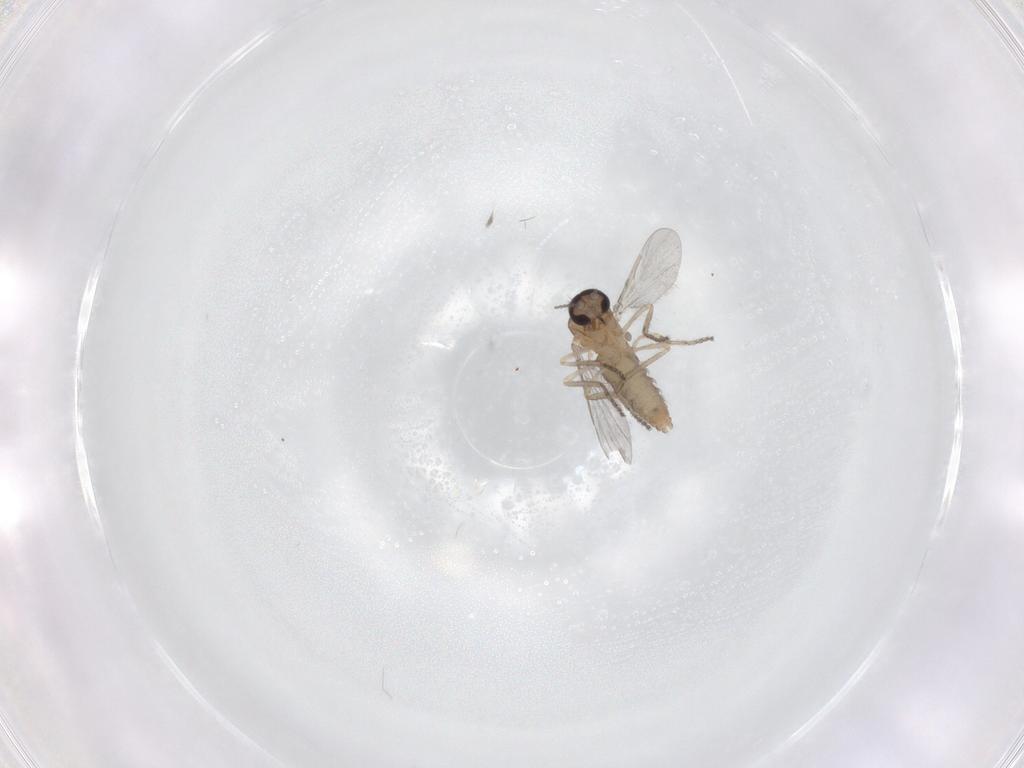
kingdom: Animalia
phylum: Arthropoda
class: Insecta
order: Diptera
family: Ceratopogonidae
